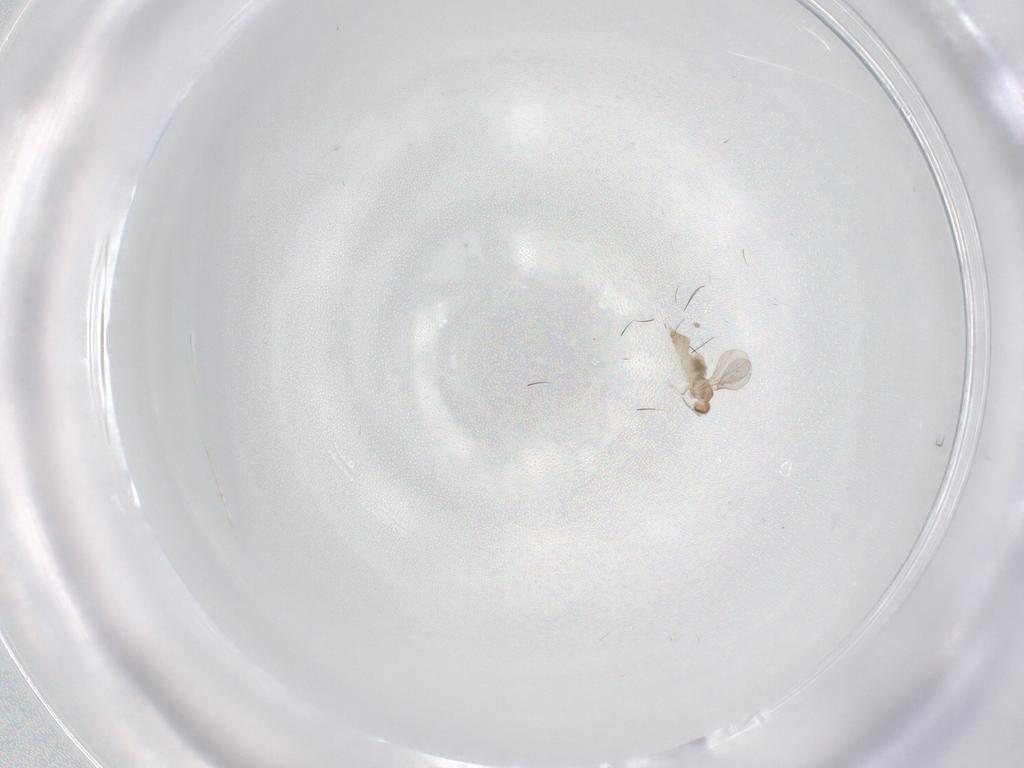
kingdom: Animalia
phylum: Arthropoda
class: Insecta
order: Diptera
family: Cecidomyiidae
